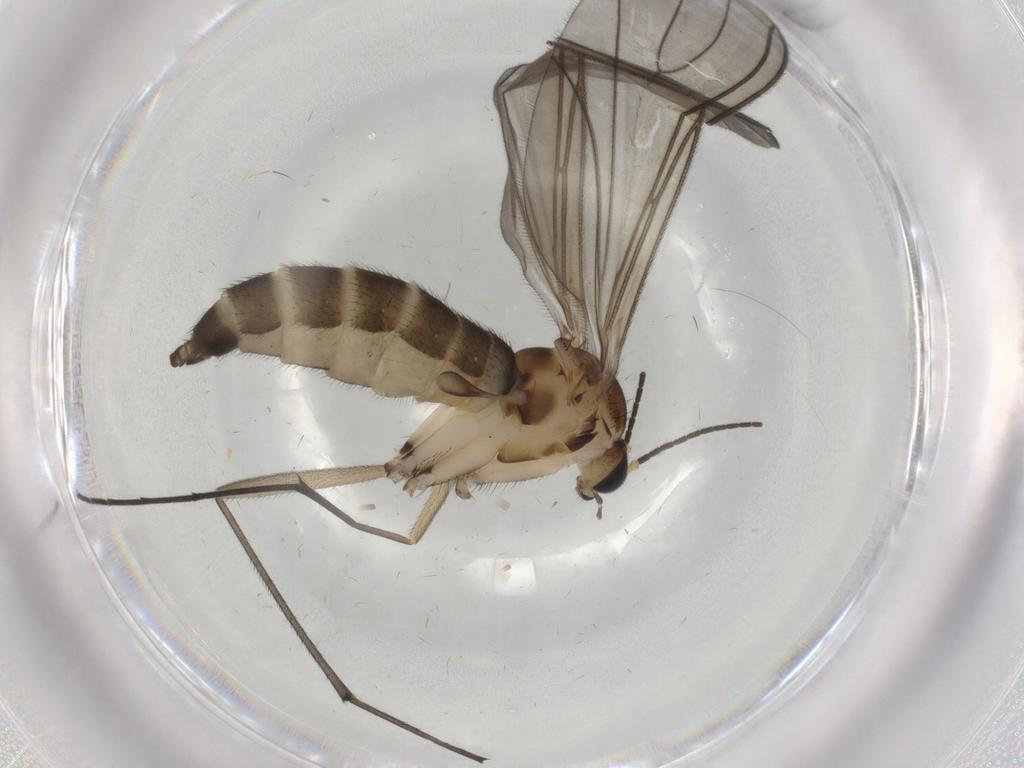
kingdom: Animalia
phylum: Arthropoda
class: Insecta
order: Diptera
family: Sciaridae
